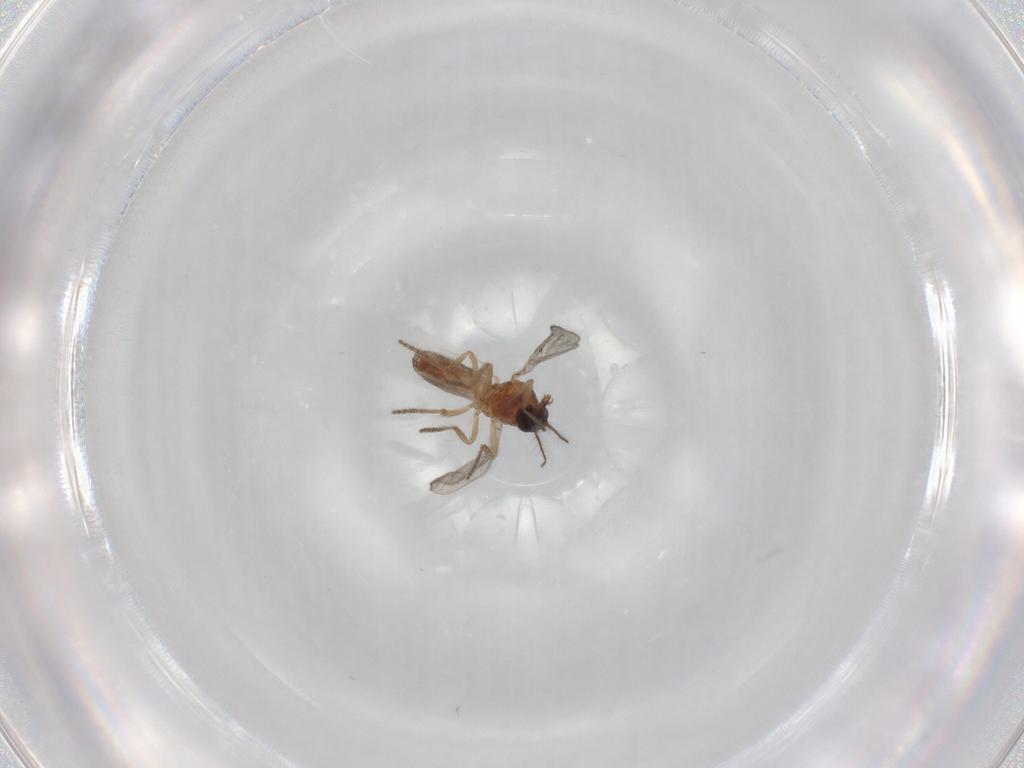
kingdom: Animalia
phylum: Arthropoda
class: Insecta
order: Diptera
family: Ceratopogonidae
